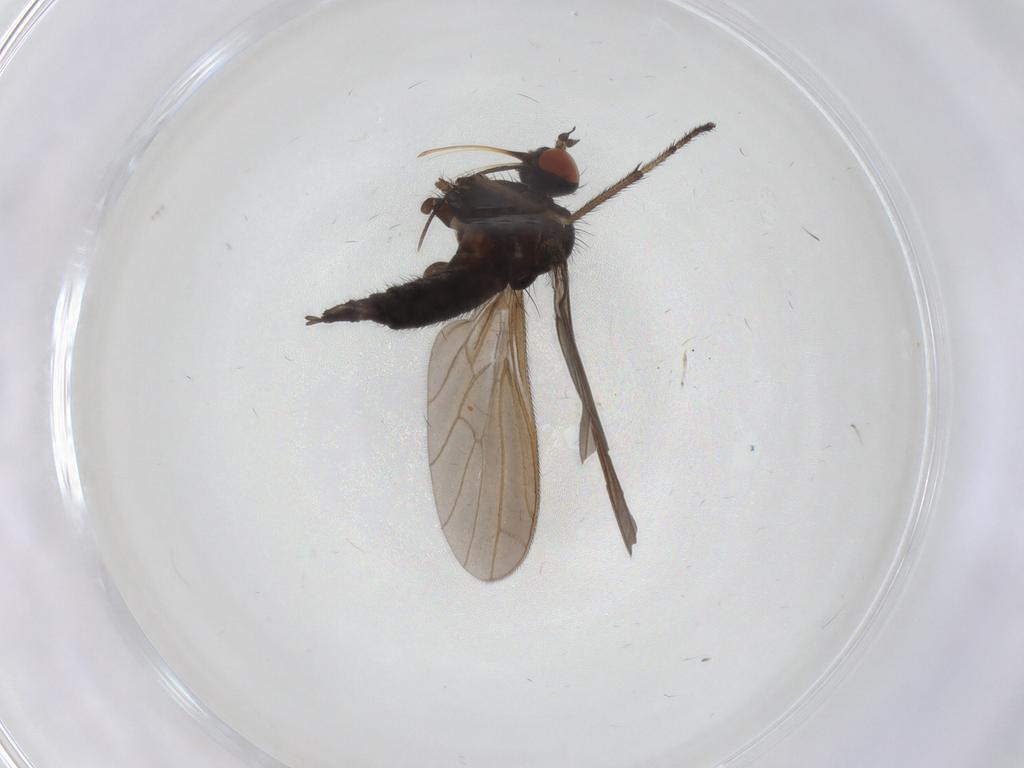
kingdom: Animalia
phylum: Arthropoda
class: Insecta
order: Diptera
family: Empididae
